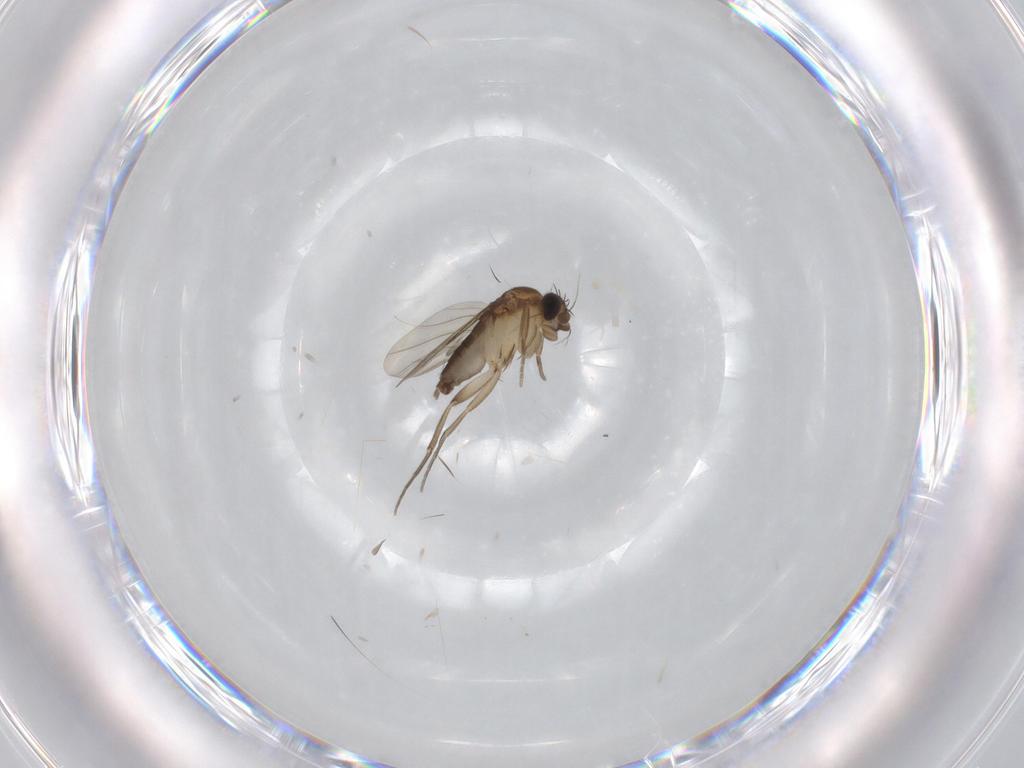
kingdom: Animalia
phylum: Arthropoda
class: Insecta
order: Diptera
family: Phoridae
